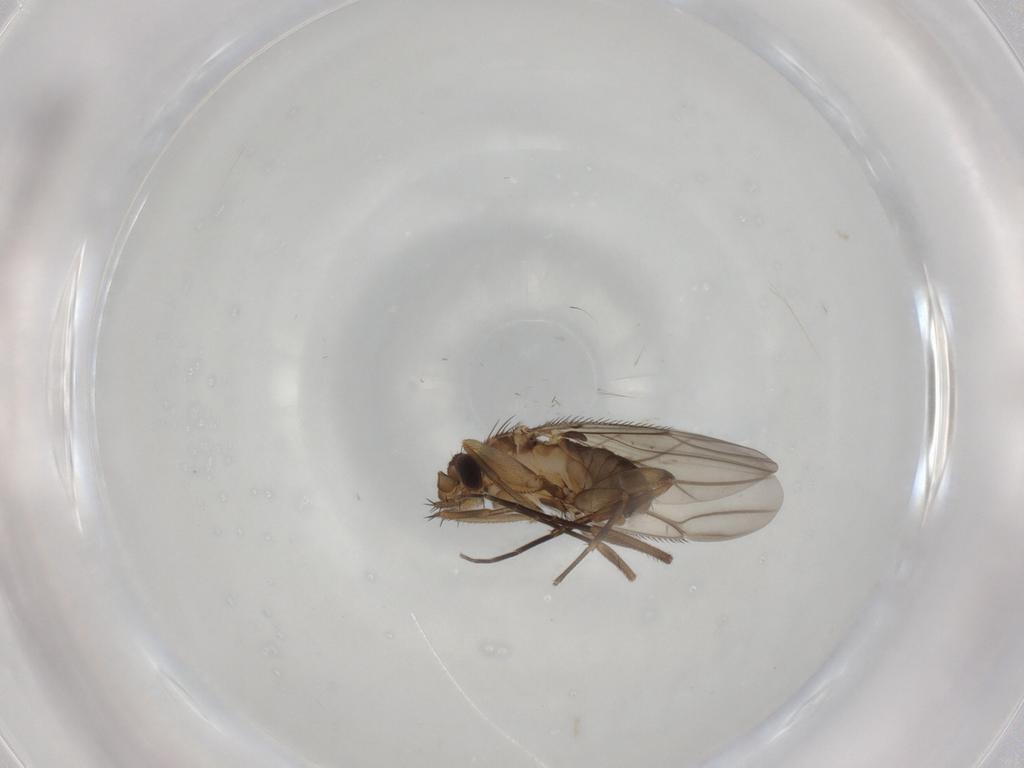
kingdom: Animalia
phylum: Arthropoda
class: Insecta
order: Diptera
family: Phoridae
